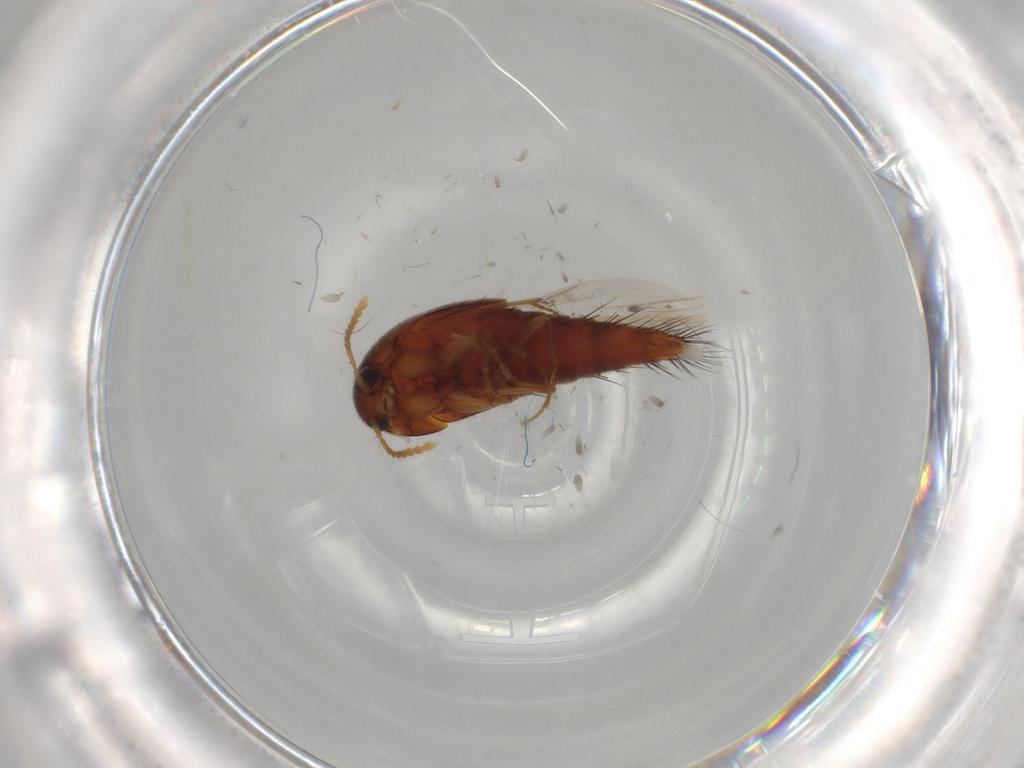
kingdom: Animalia
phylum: Arthropoda
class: Insecta
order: Coleoptera
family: Staphylinidae
